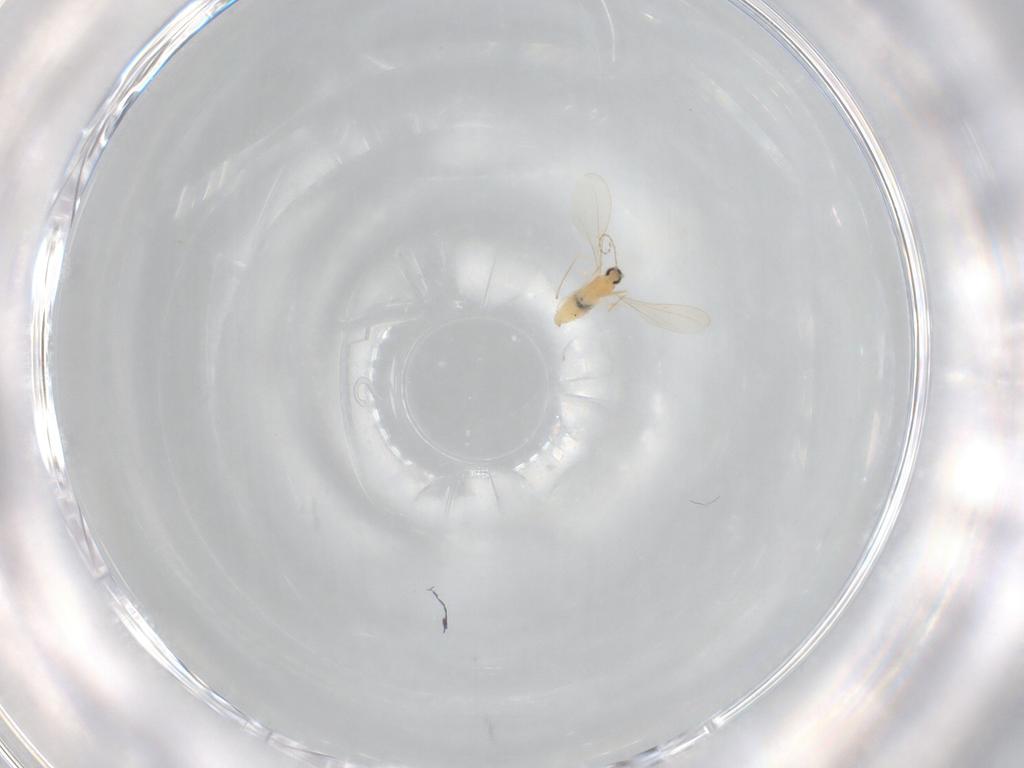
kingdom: Animalia
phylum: Arthropoda
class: Insecta
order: Diptera
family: Cecidomyiidae
